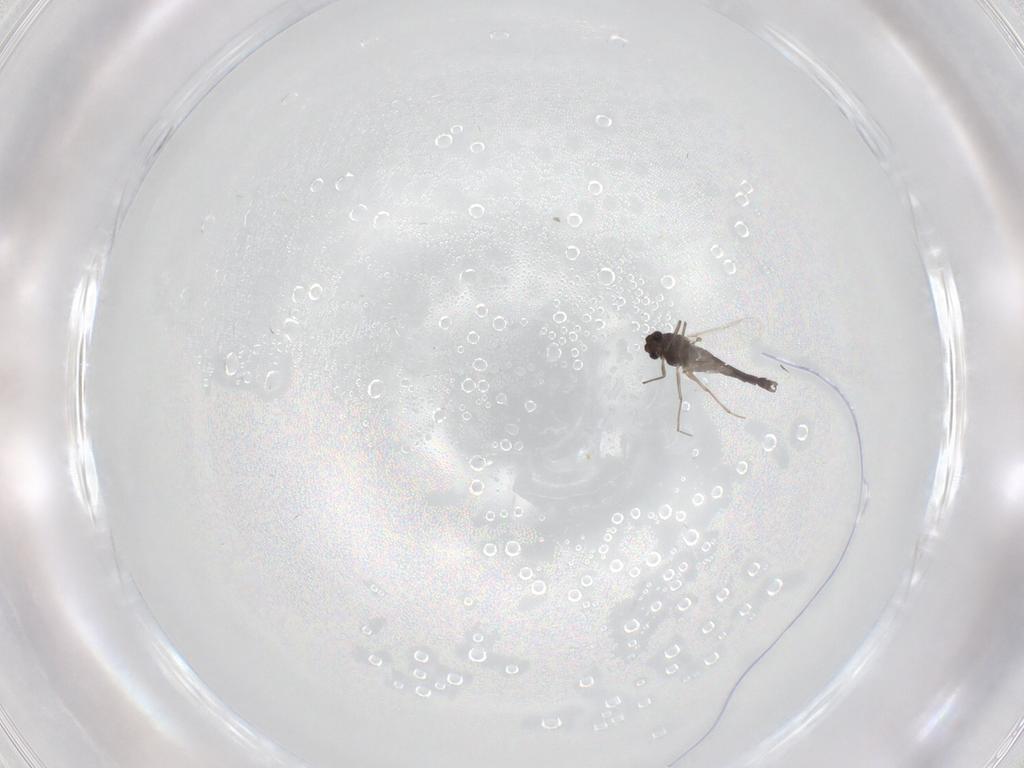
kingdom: Animalia
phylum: Arthropoda
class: Insecta
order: Diptera
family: Chironomidae
